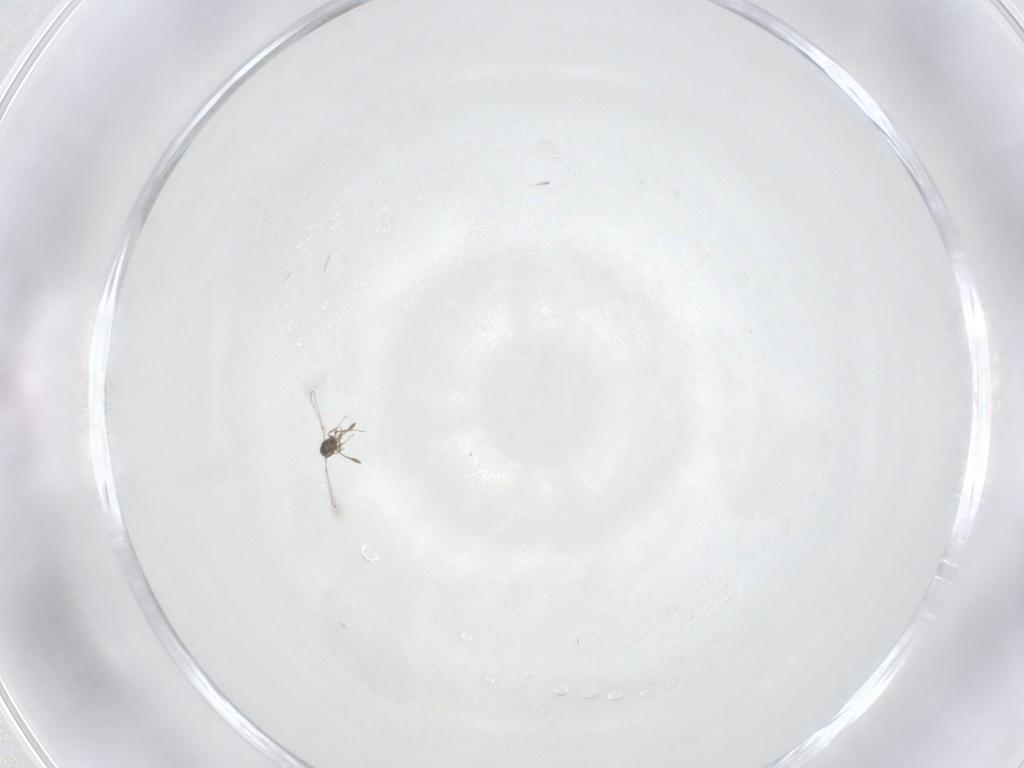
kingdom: Animalia
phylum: Arthropoda
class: Insecta
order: Hymenoptera
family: Mymaridae
